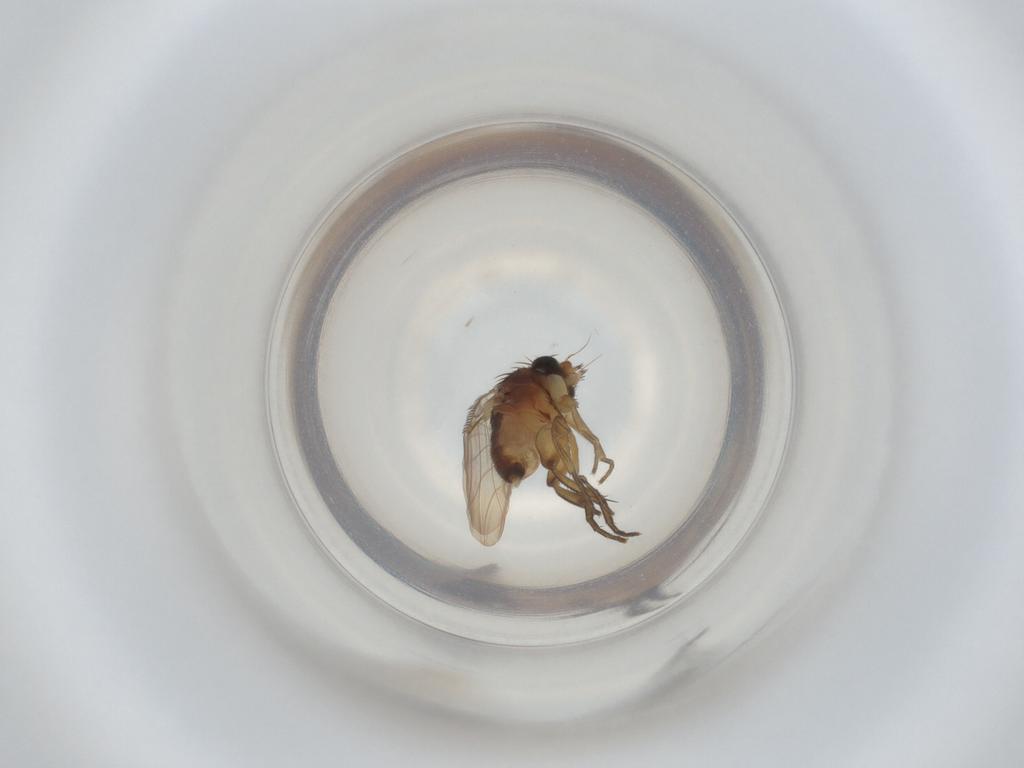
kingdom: Animalia
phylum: Arthropoda
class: Insecta
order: Diptera
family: Phoridae
